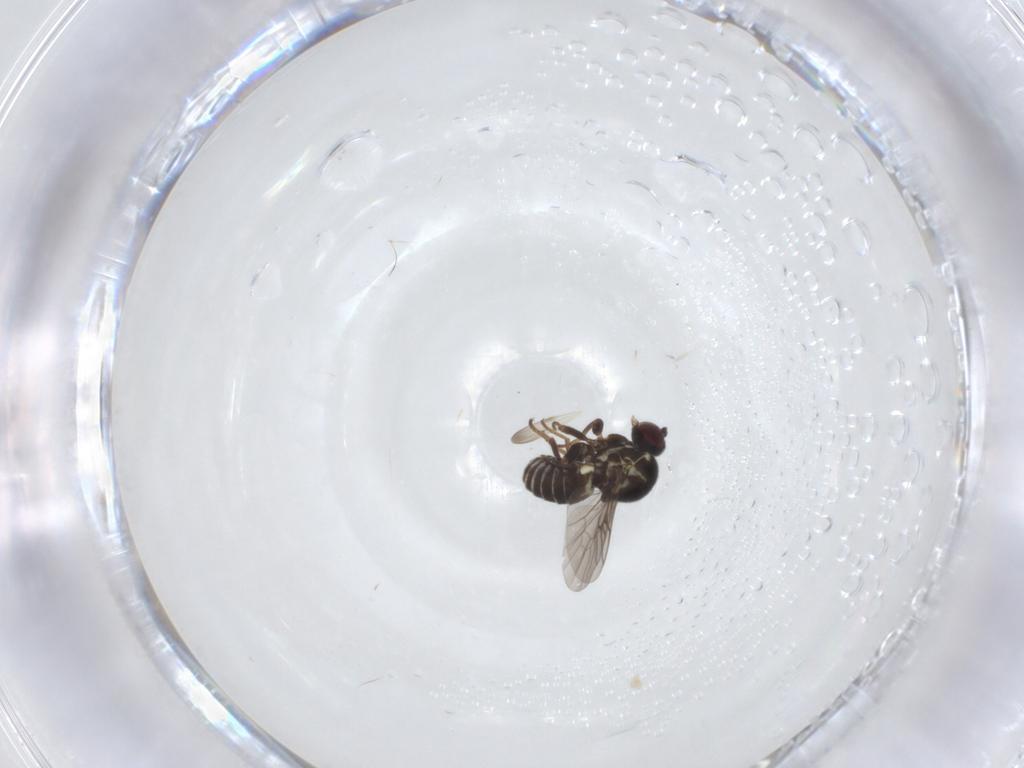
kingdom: Animalia
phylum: Arthropoda
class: Insecta
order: Diptera
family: Mythicomyiidae
